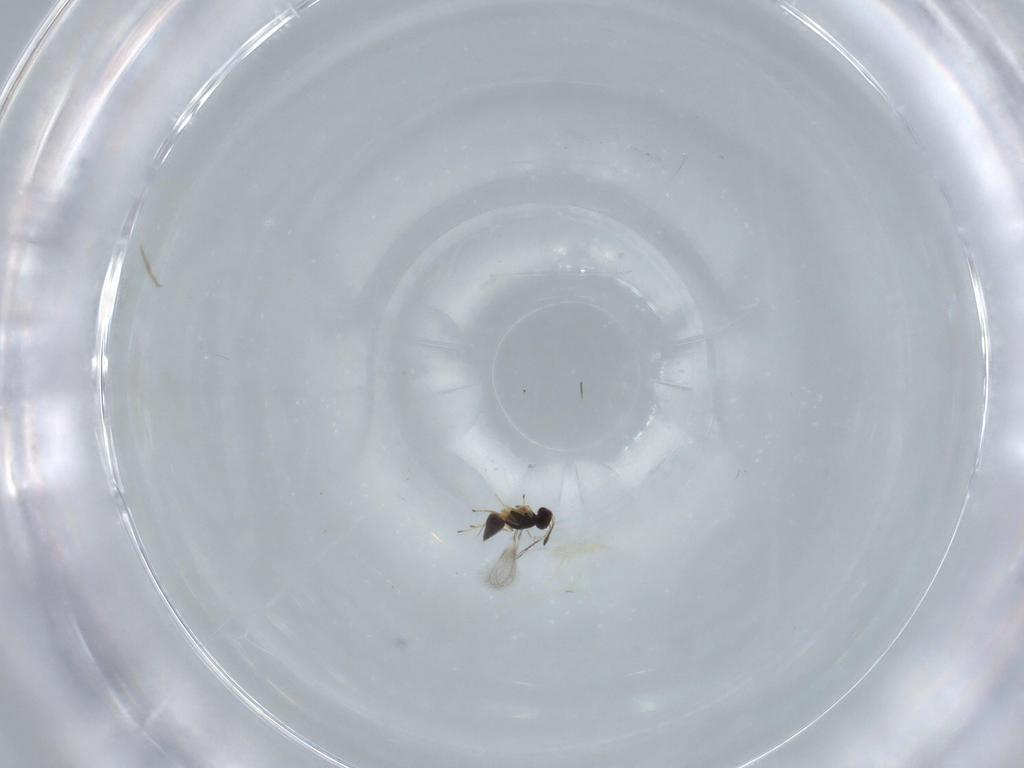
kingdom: Animalia
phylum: Arthropoda
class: Insecta
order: Hymenoptera
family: Mymaridae
